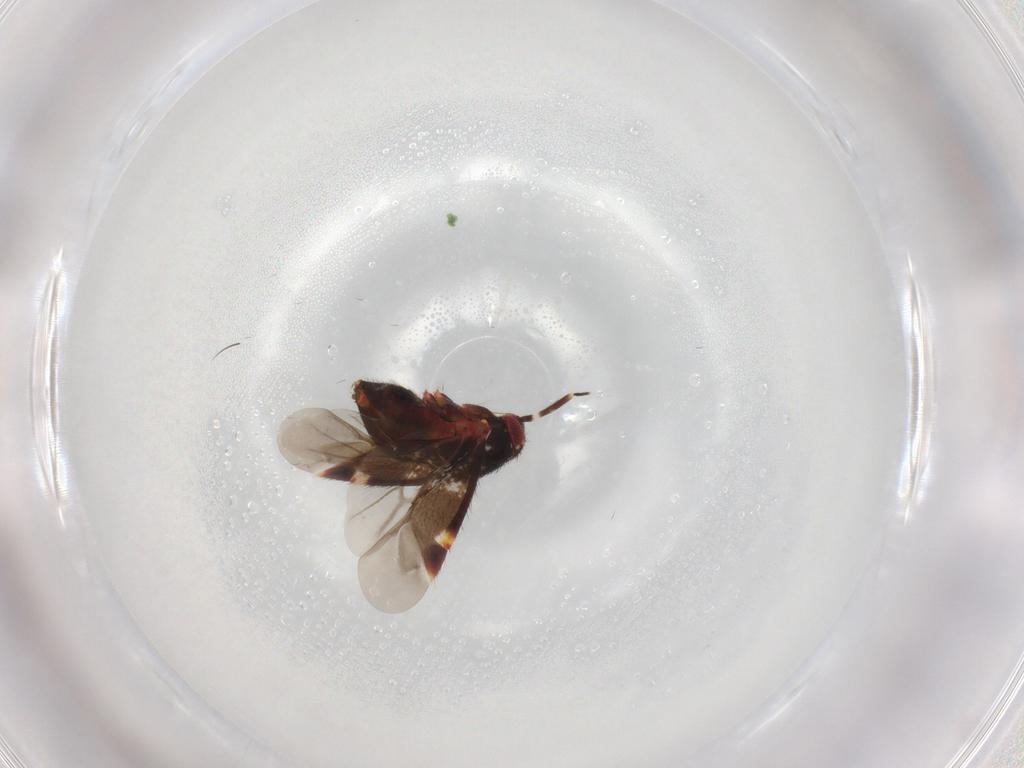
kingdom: Animalia
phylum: Arthropoda
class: Insecta
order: Hemiptera
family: Miridae
